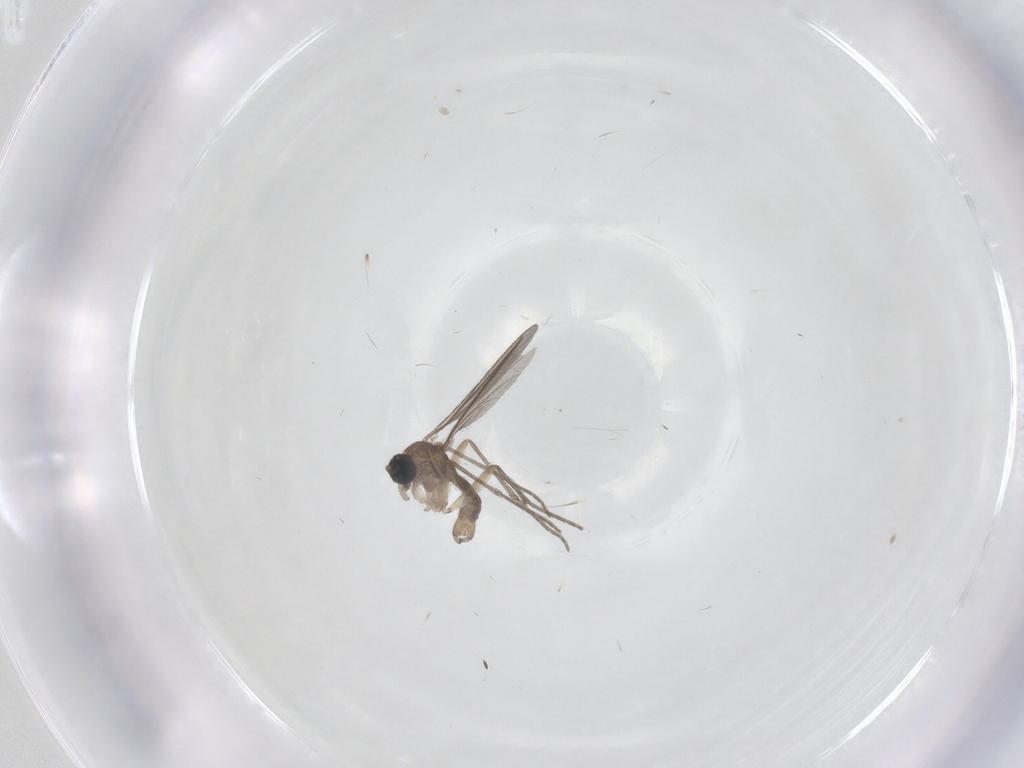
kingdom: Animalia
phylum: Arthropoda
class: Insecta
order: Diptera
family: Sciaridae
